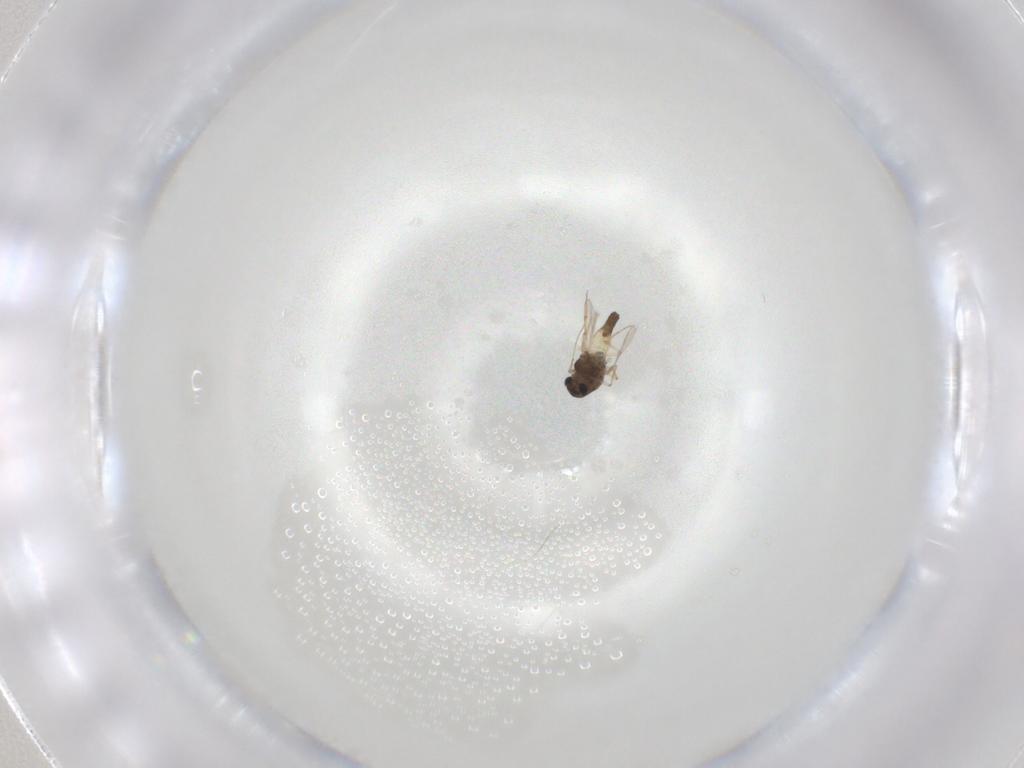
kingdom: Animalia
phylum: Arthropoda
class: Insecta
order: Diptera
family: Chironomidae
